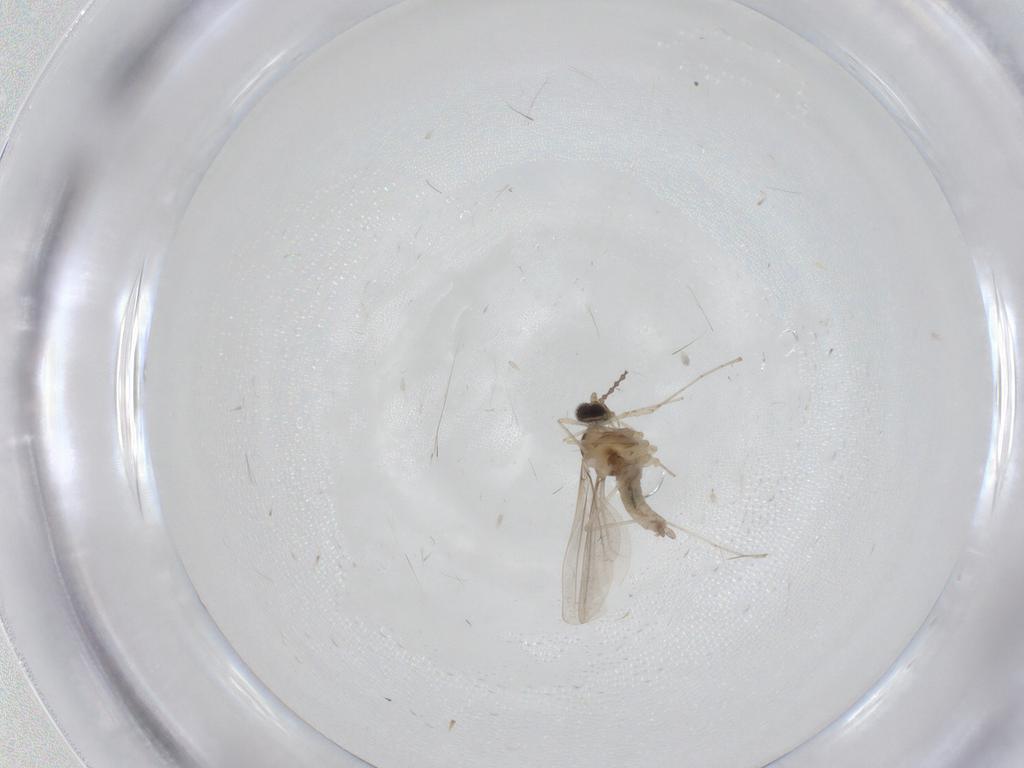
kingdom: Animalia
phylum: Arthropoda
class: Insecta
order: Diptera
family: Cecidomyiidae
